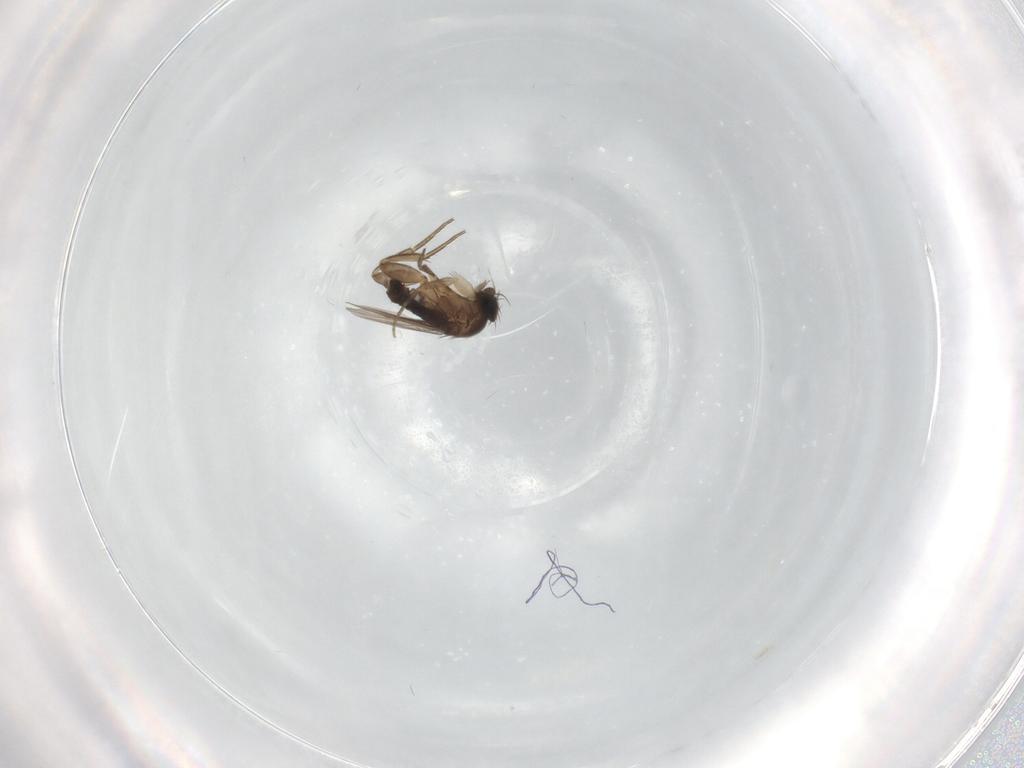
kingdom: Animalia
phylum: Arthropoda
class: Insecta
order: Diptera
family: Phoridae
